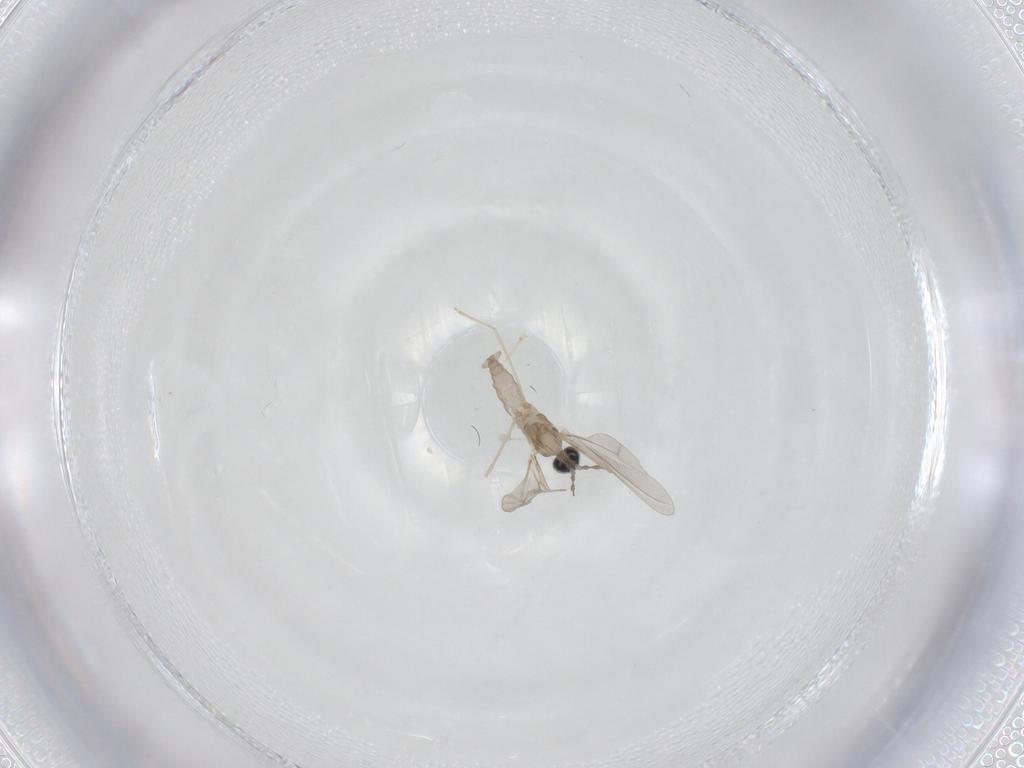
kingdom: Animalia
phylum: Arthropoda
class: Insecta
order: Diptera
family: Cecidomyiidae
